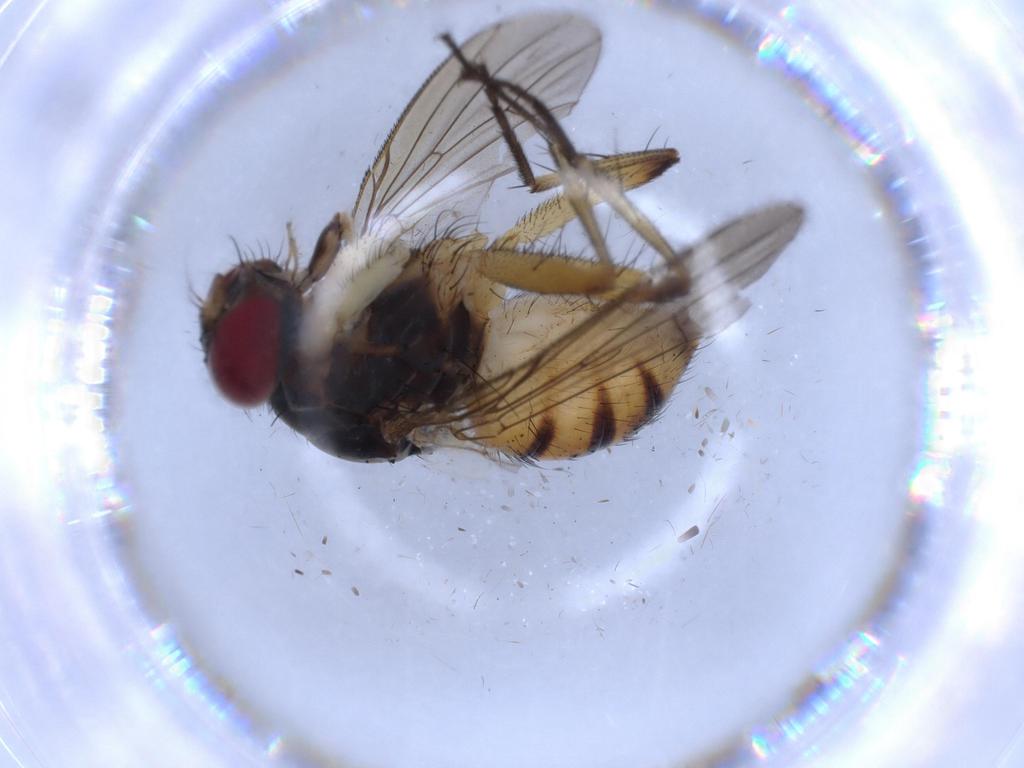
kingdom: Animalia
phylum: Arthropoda
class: Insecta
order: Diptera
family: Muscidae
